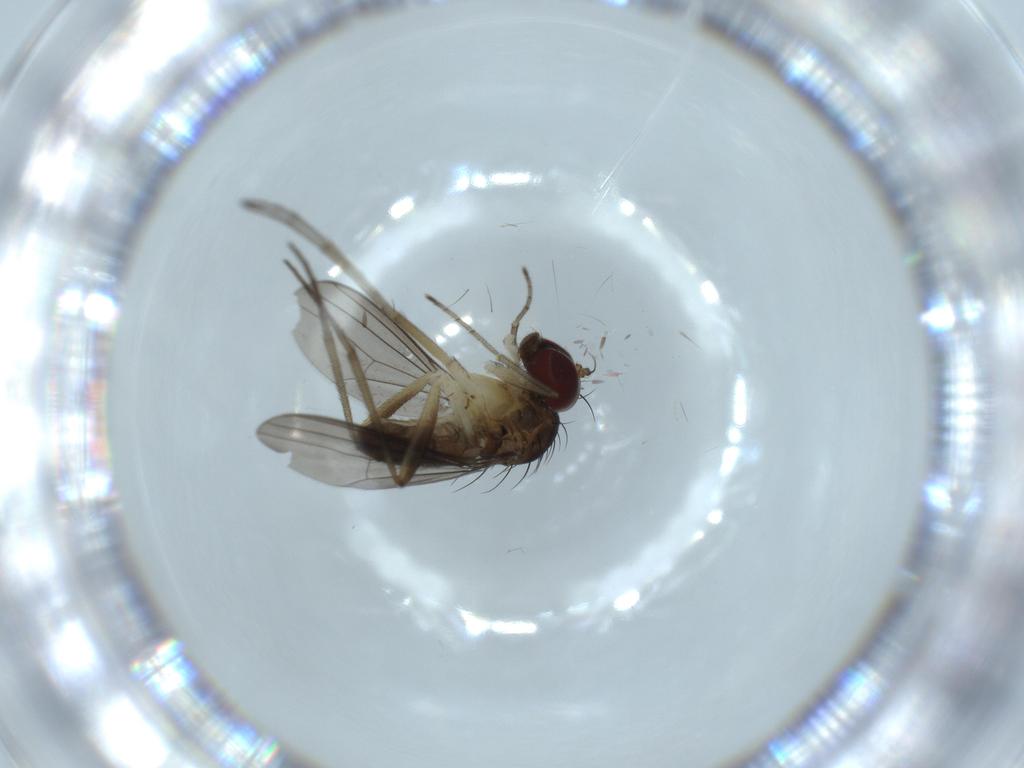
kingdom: Animalia
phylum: Arthropoda
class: Insecta
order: Diptera
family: Dolichopodidae
